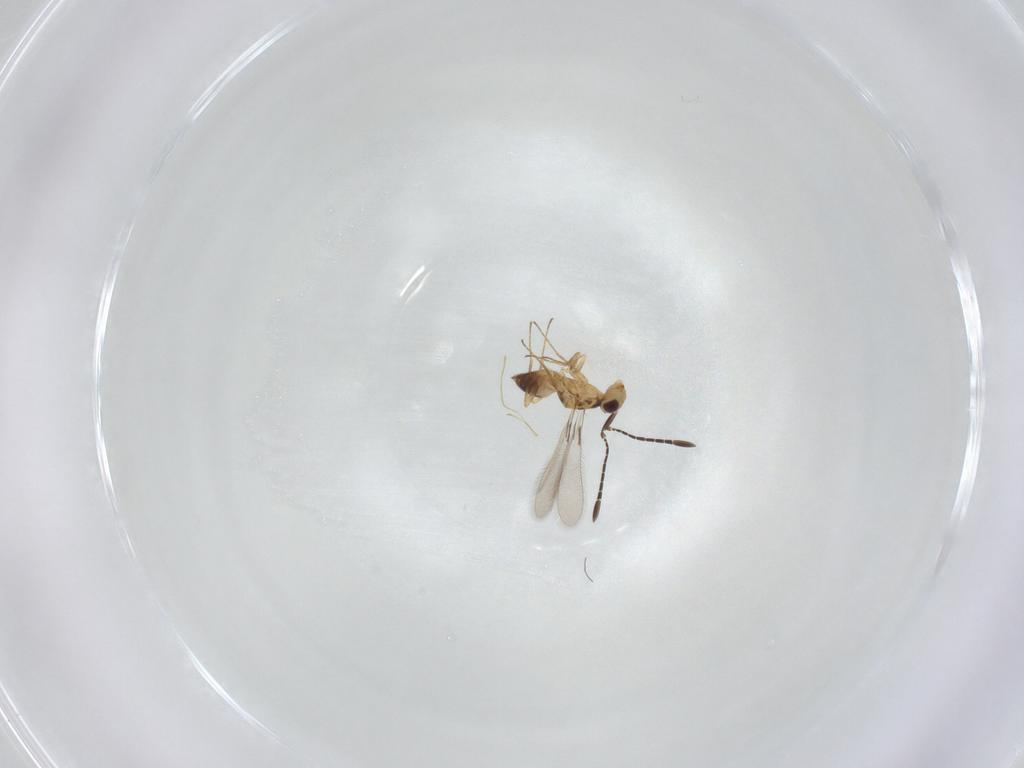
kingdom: Animalia
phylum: Arthropoda
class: Insecta
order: Hymenoptera
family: Mymaridae
